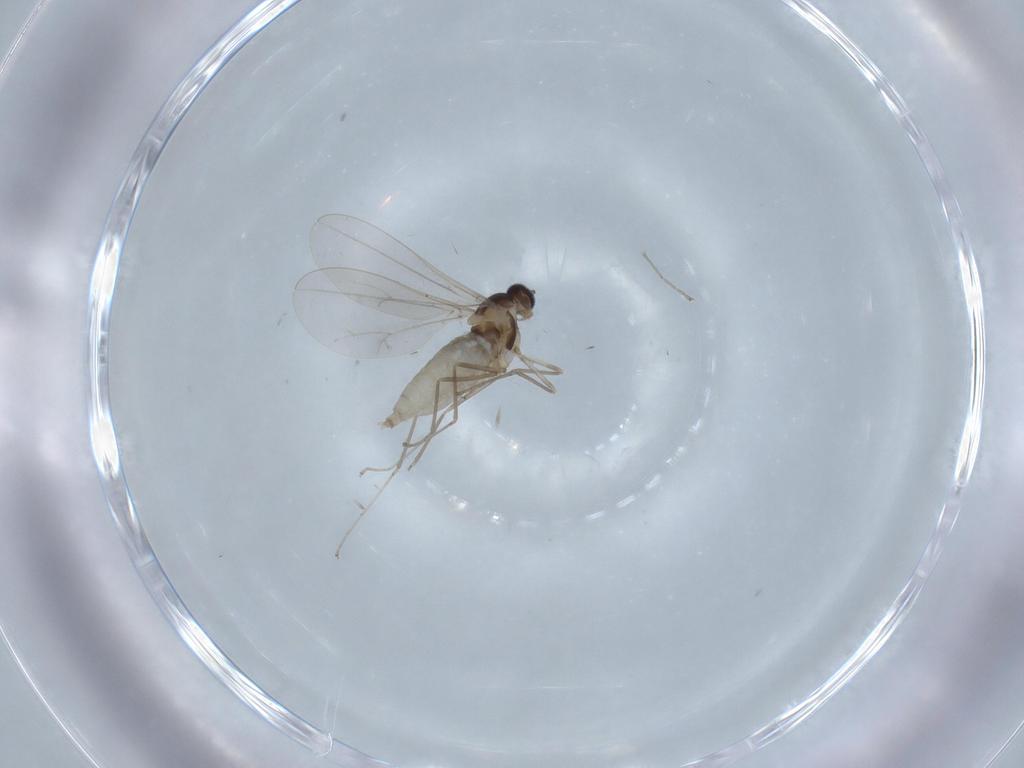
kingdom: Animalia
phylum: Arthropoda
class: Insecta
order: Diptera
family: Cecidomyiidae
